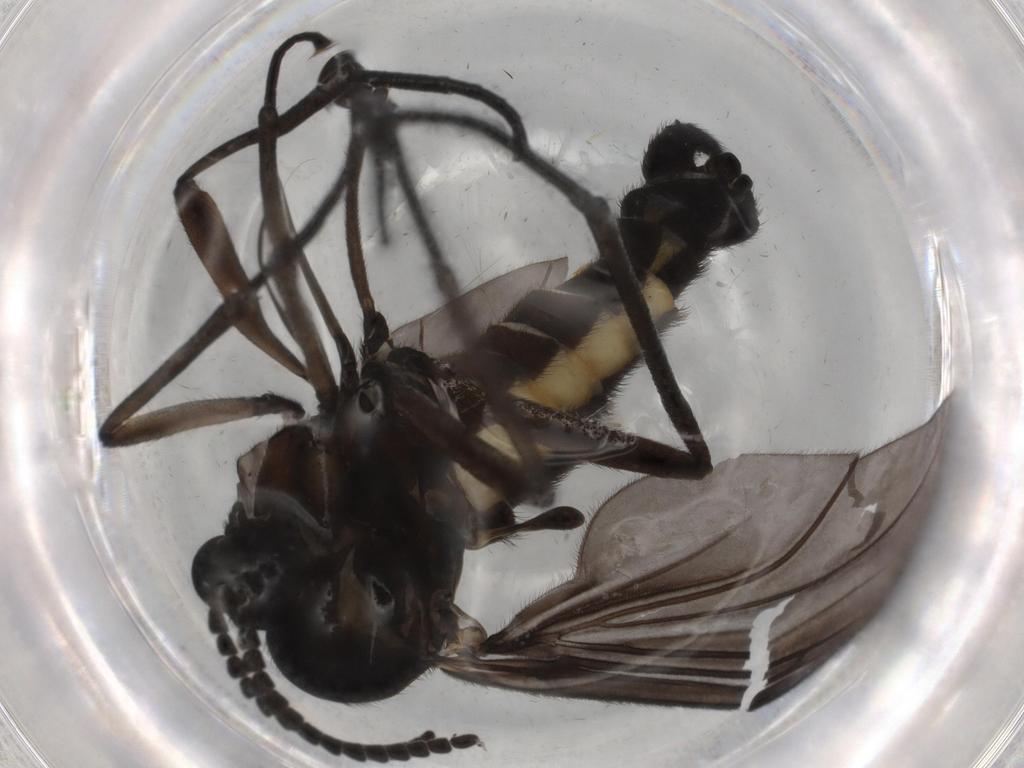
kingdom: Animalia
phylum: Arthropoda
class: Insecta
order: Diptera
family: Sciaridae
